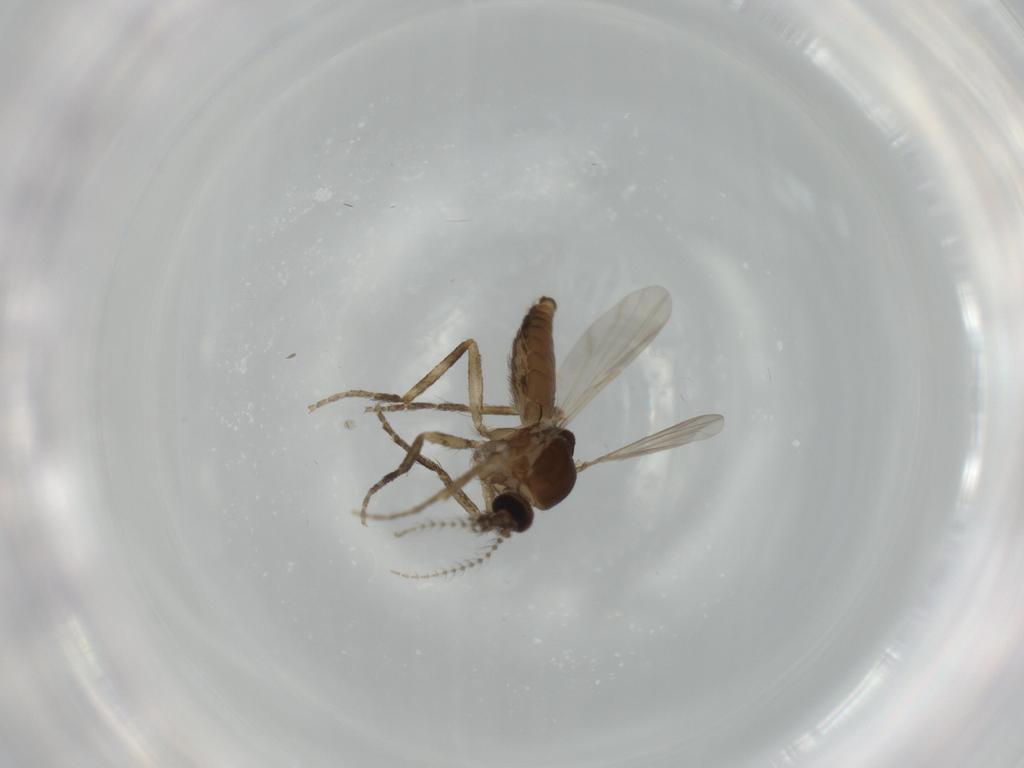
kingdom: Animalia
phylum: Arthropoda
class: Insecta
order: Diptera
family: Ceratopogonidae
